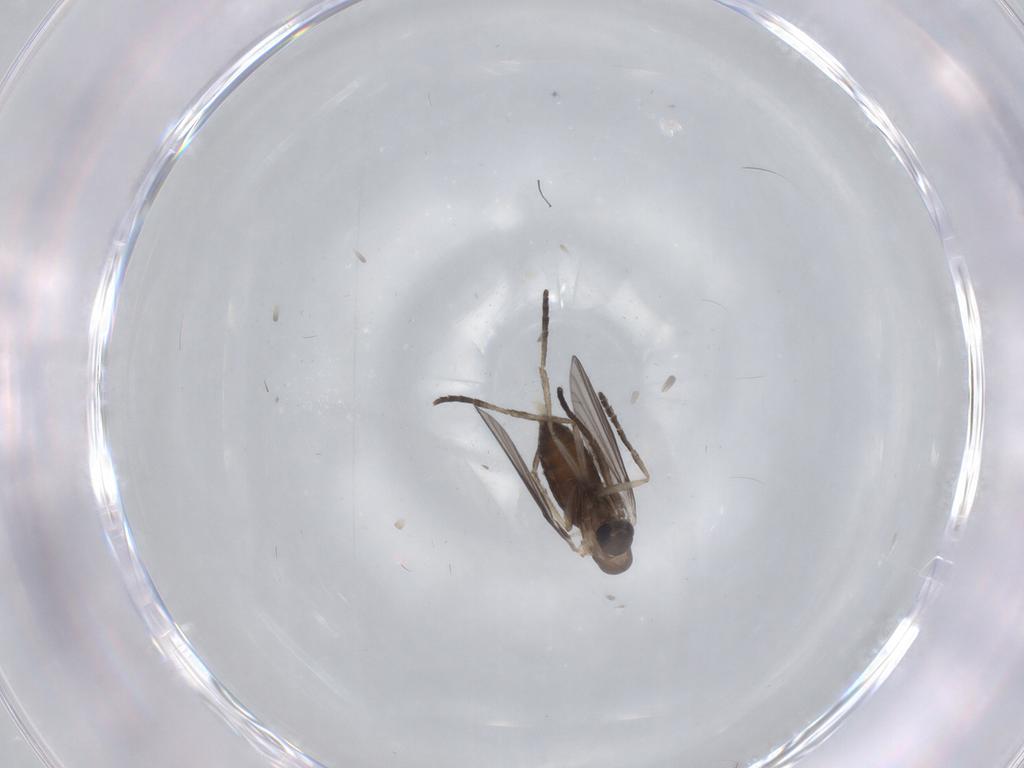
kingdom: Animalia
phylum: Arthropoda
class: Insecta
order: Diptera
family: Psychodidae
